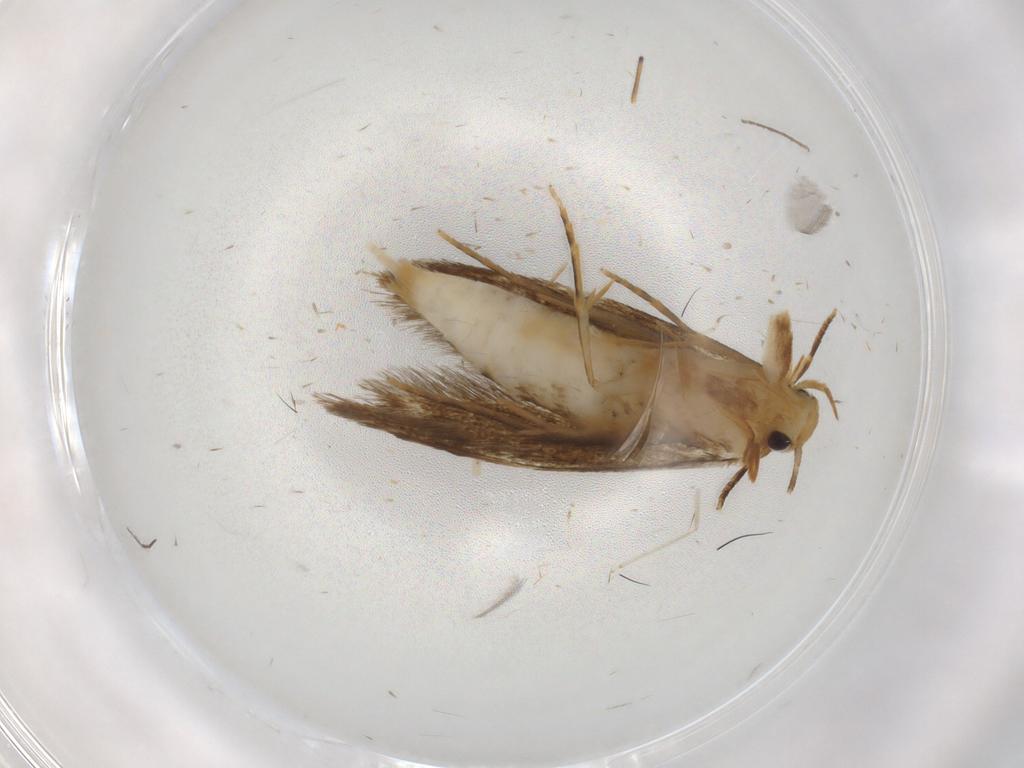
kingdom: Animalia
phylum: Arthropoda
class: Insecta
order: Lepidoptera
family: Tineidae
